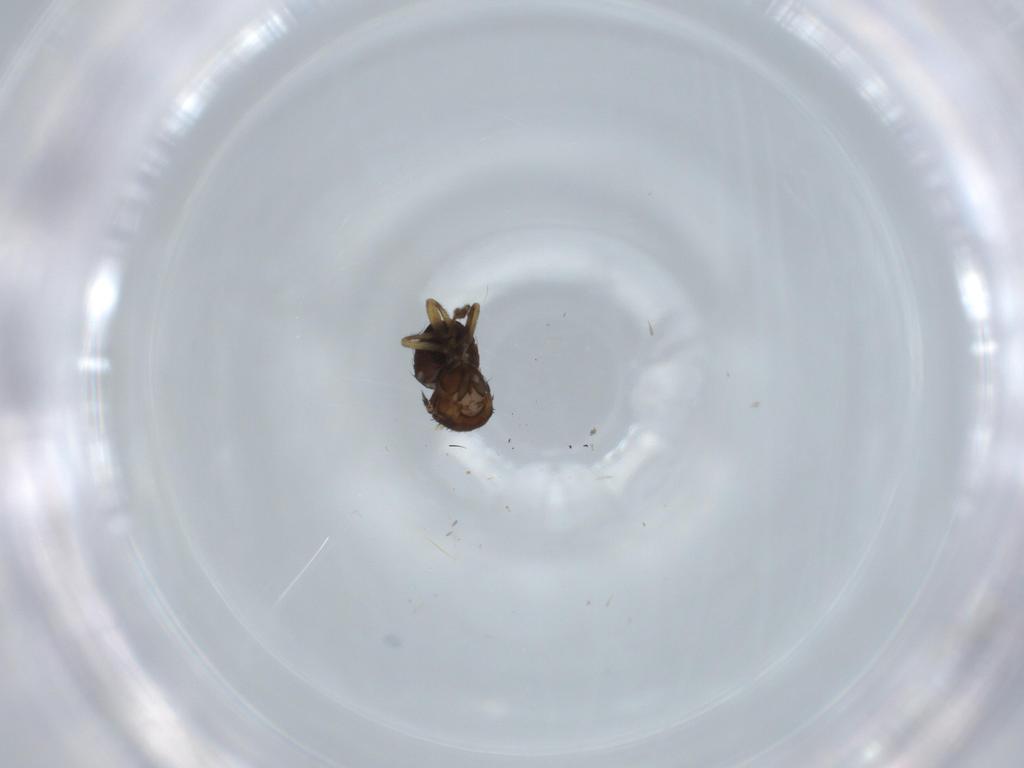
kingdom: Animalia
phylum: Arthropoda
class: Insecta
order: Diptera
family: Sphaeroceridae
